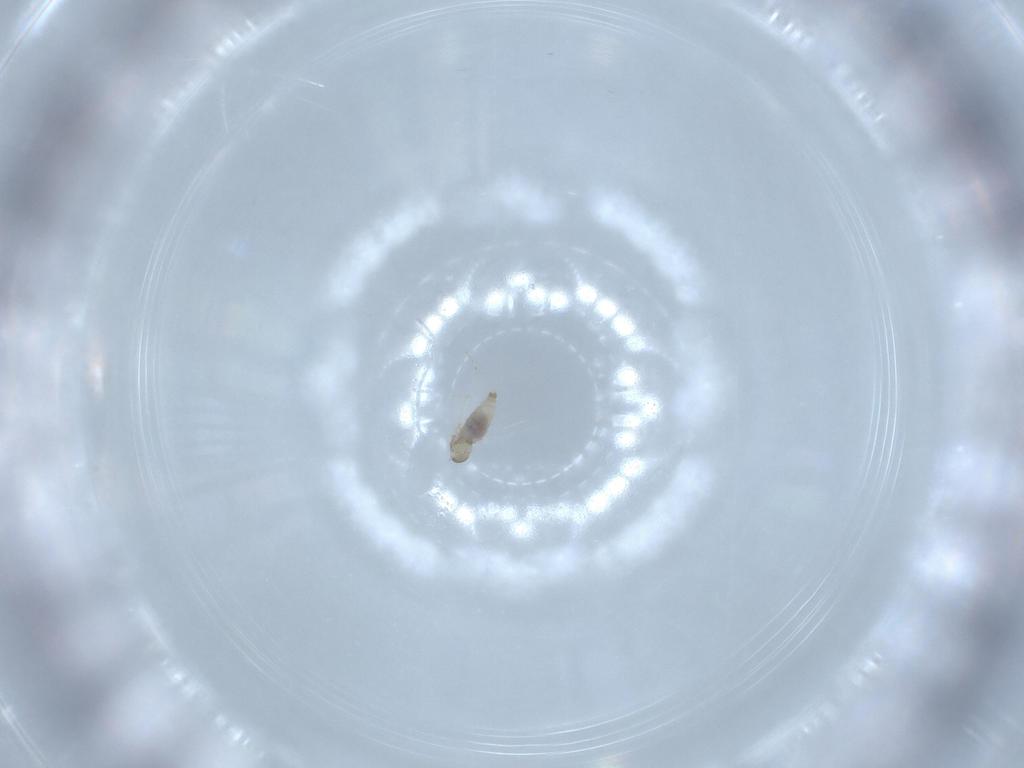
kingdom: Animalia
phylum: Arthropoda
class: Insecta
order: Diptera
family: Cecidomyiidae
